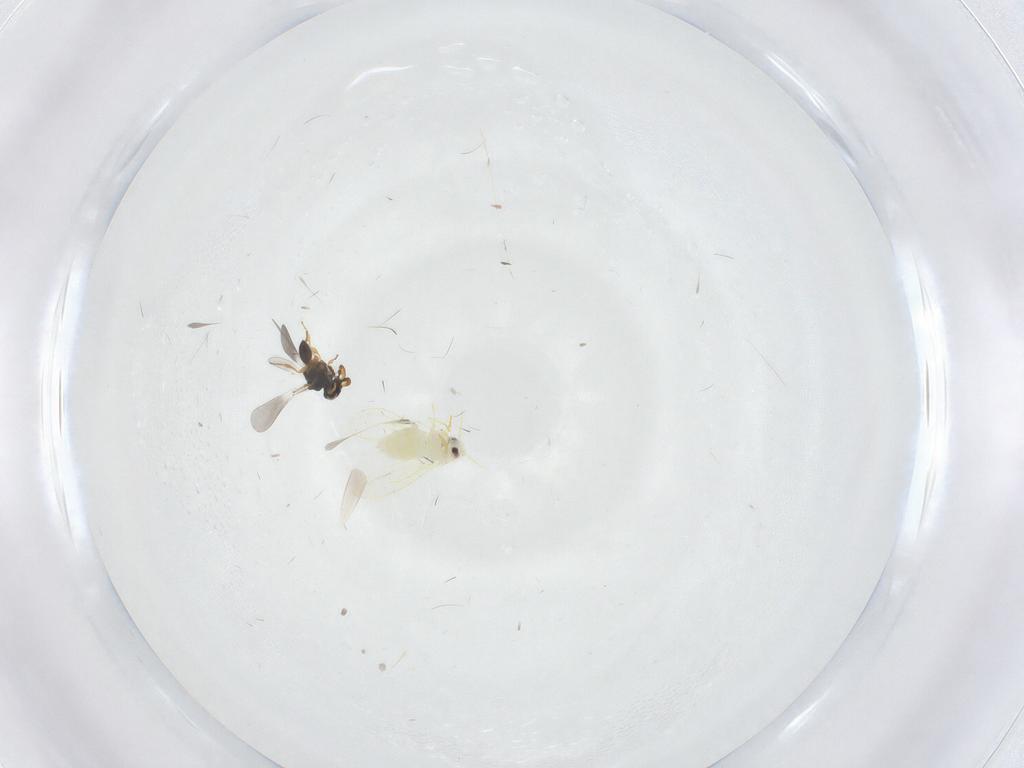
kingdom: Animalia
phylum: Arthropoda
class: Insecta
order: Hymenoptera
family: Platygastridae
